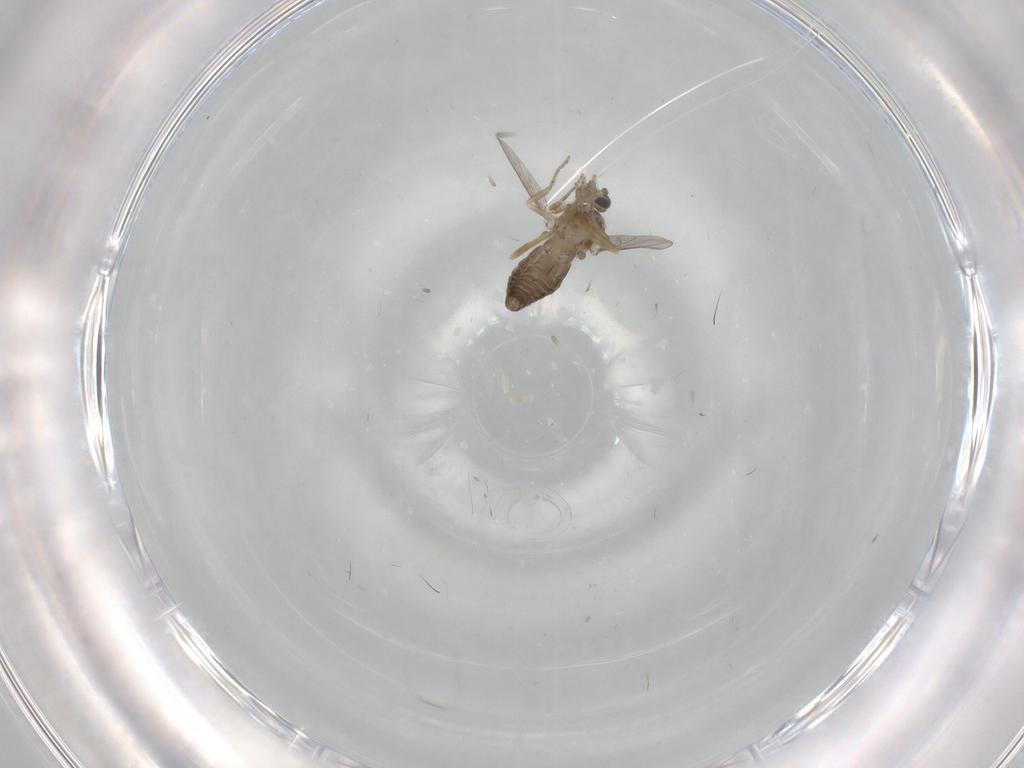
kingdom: Animalia
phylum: Arthropoda
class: Insecta
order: Diptera
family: Ceratopogonidae
